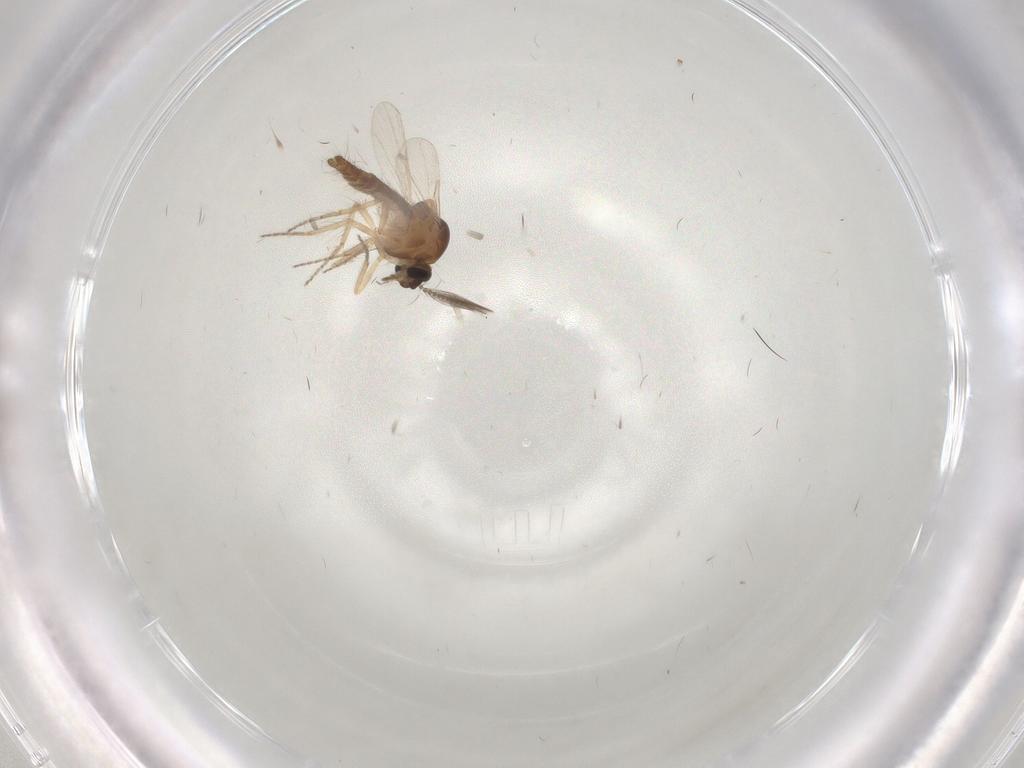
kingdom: Animalia
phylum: Arthropoda
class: Insecta
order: Diptera
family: Ceratopogonidae
